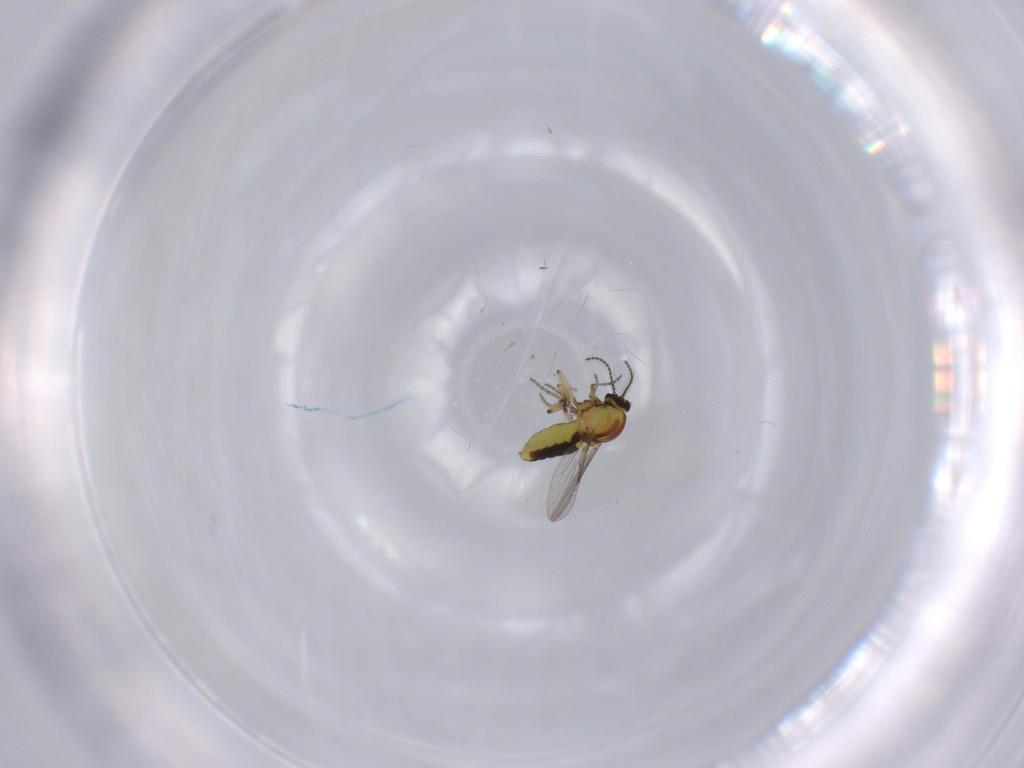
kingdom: Animalia
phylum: Arthropoda
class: Insecta
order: Diptera
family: Ceratopogonidae
